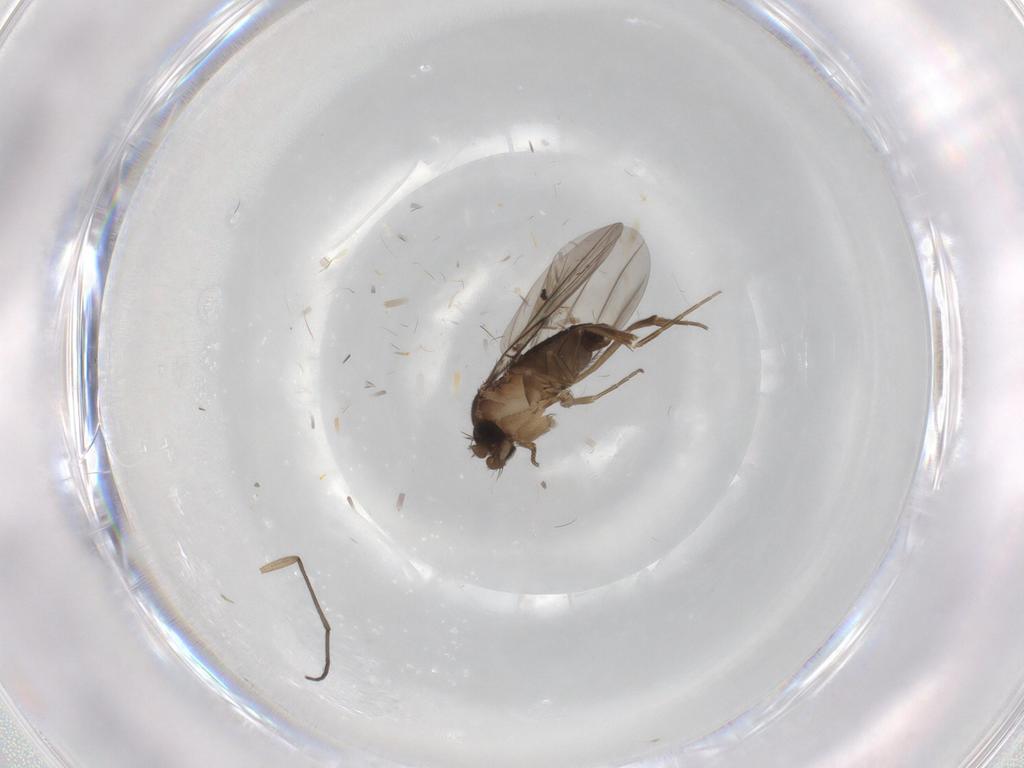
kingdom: Animalia
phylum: Arthropoda
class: Insecta
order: Diptera
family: Phoridae
